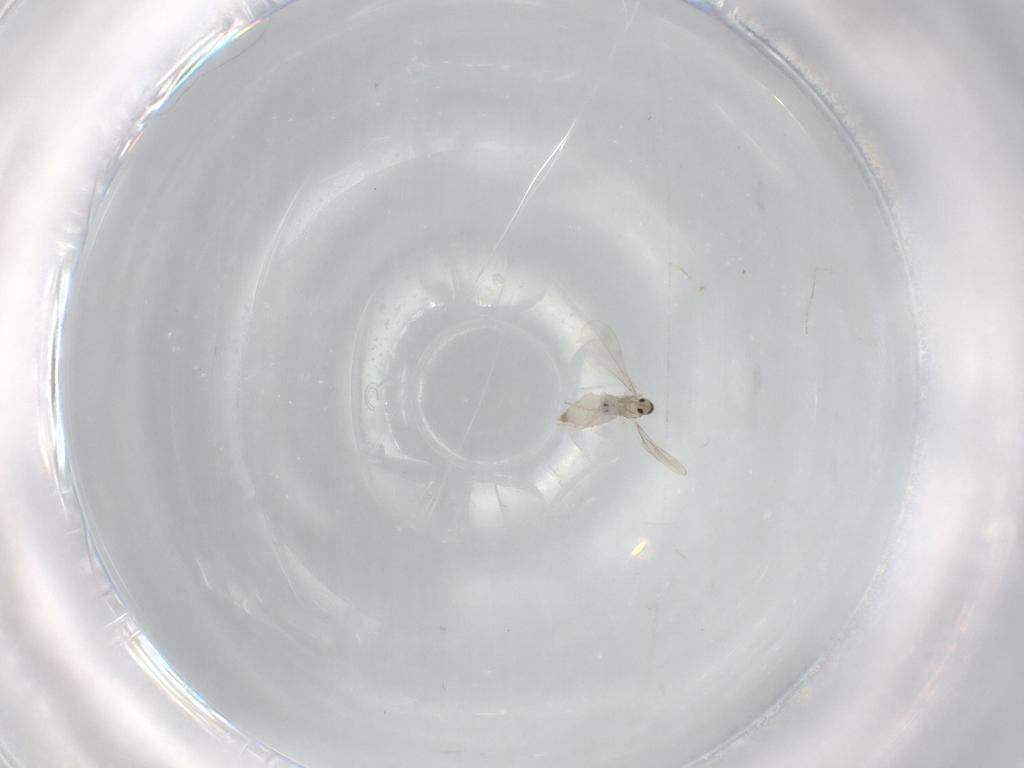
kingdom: Animalia
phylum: Arthropoda
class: Insecta
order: Diptera
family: Cecidomyiidae
